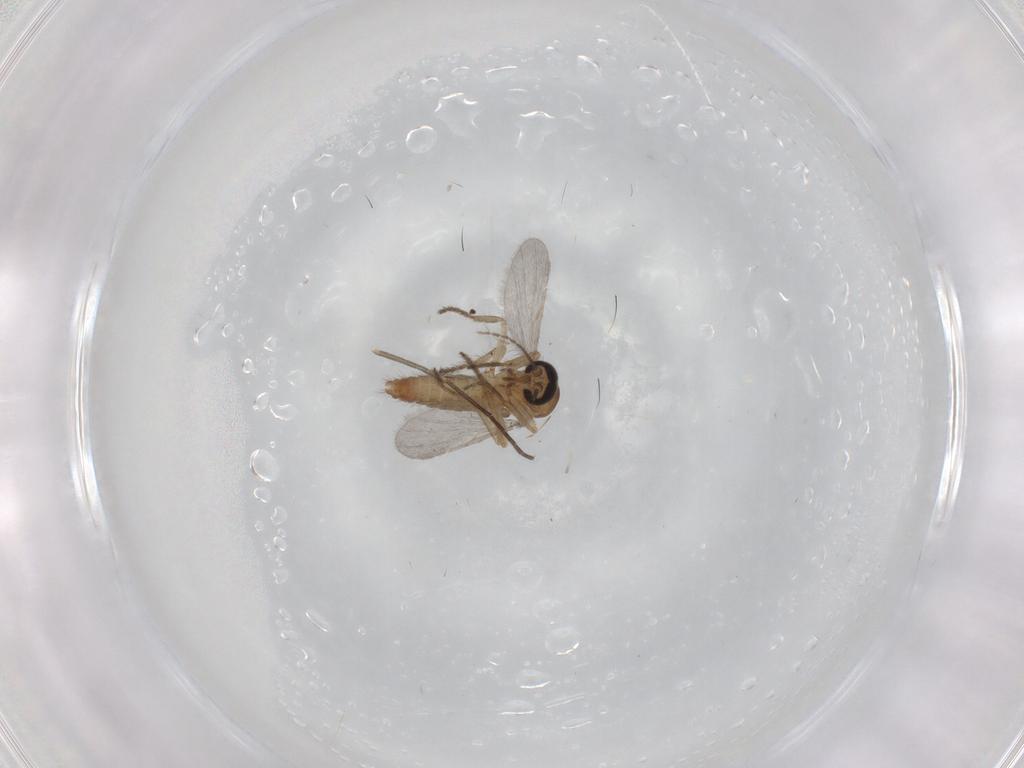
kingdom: Animalia
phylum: Arthropoda
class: Insecta
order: Diptera
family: Ceratopogonidae
